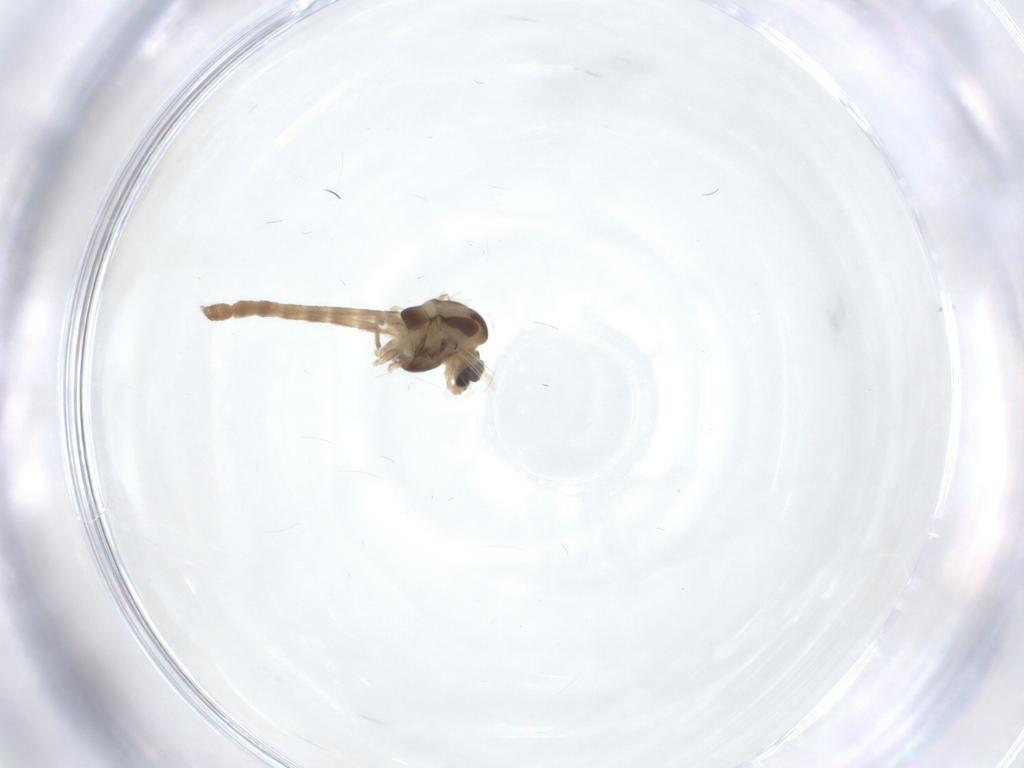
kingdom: Animalia
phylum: Arthropoda
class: Insecta
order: Diptera
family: Chironomidae
